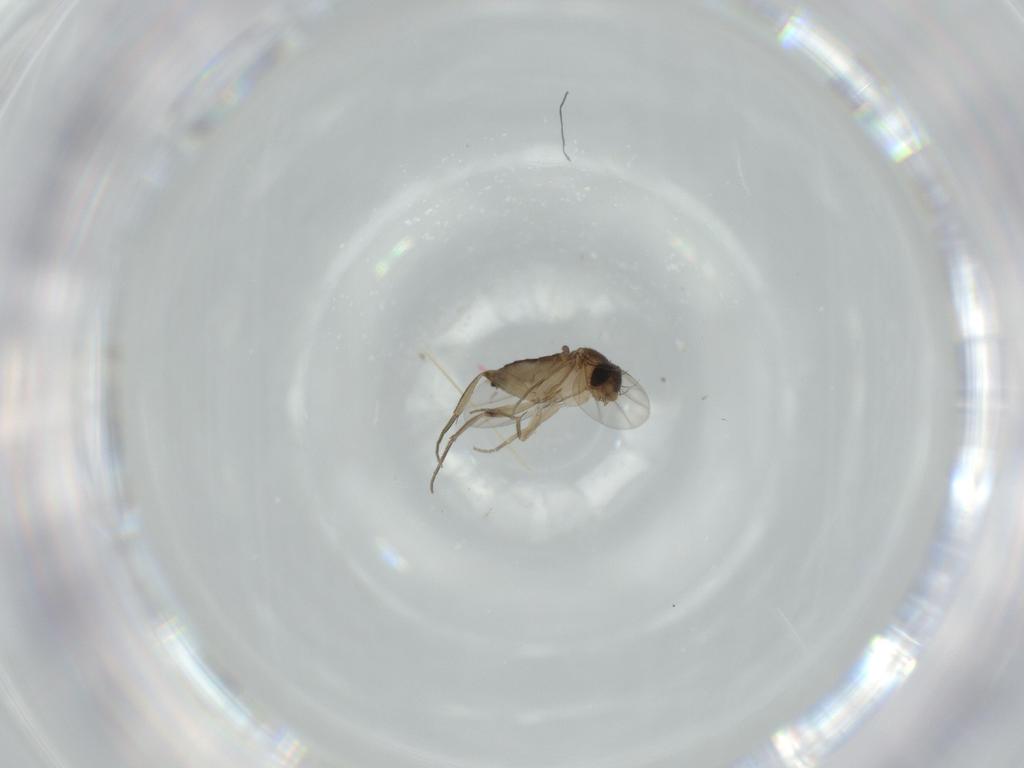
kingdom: Animalia
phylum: Arthropoda
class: Insecta
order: Diptera
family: Phoridae
